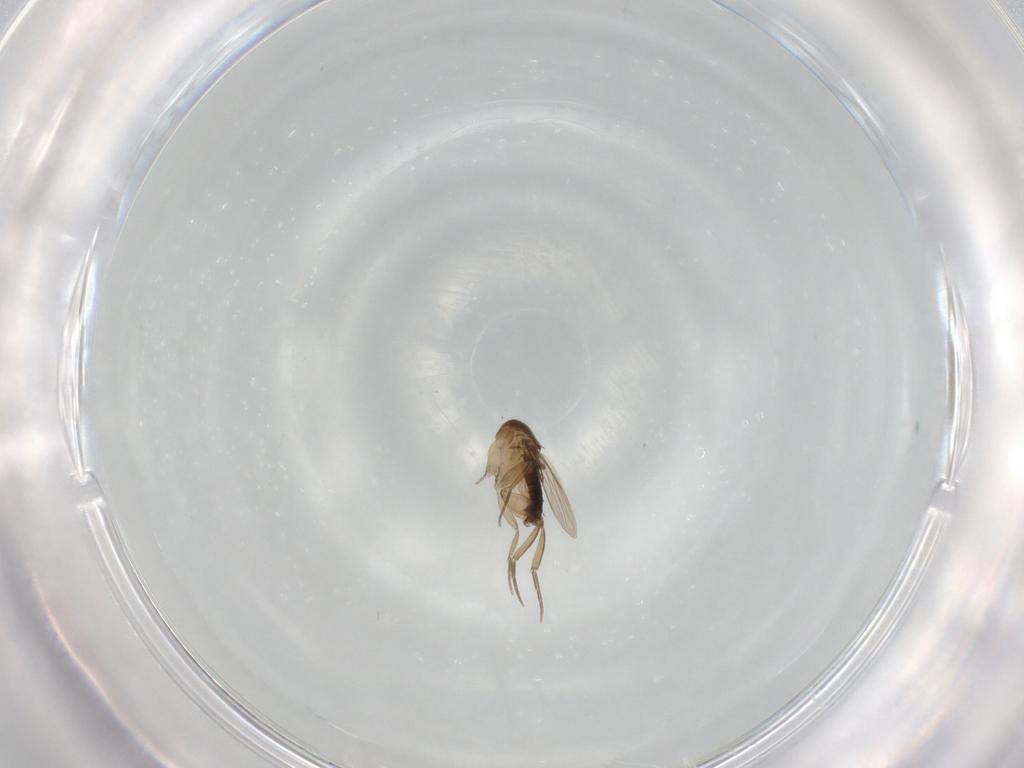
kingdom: Animalia
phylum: Arthropoda
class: Insecta
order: Diptera
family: Phoridae
